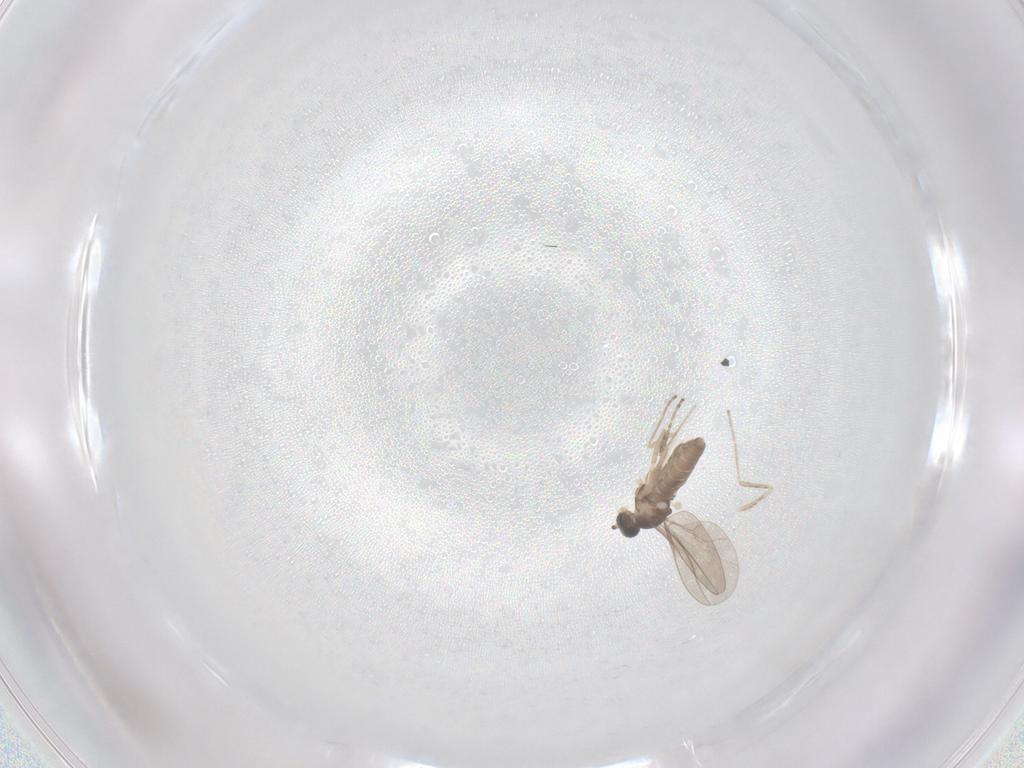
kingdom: Animalia
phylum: Arthropoda
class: Insecta
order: Diptera
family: Cecidomyiidae
